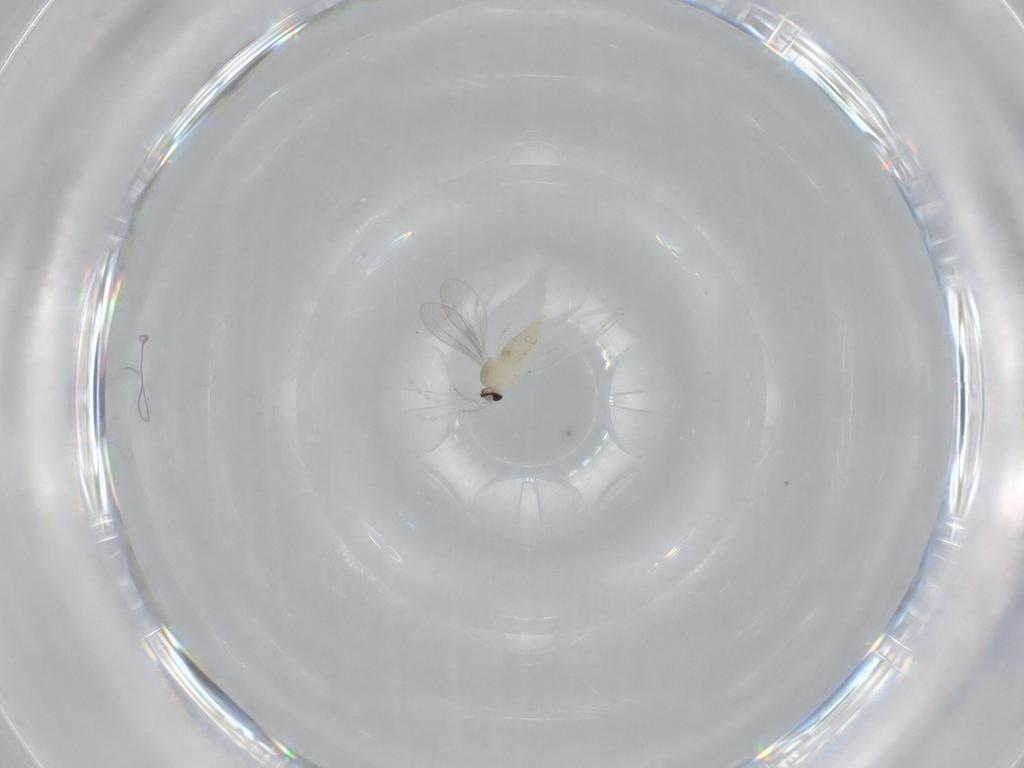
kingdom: Animalia
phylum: Arthropoda
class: Insecta
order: Diptera
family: Cecidomyiidae
